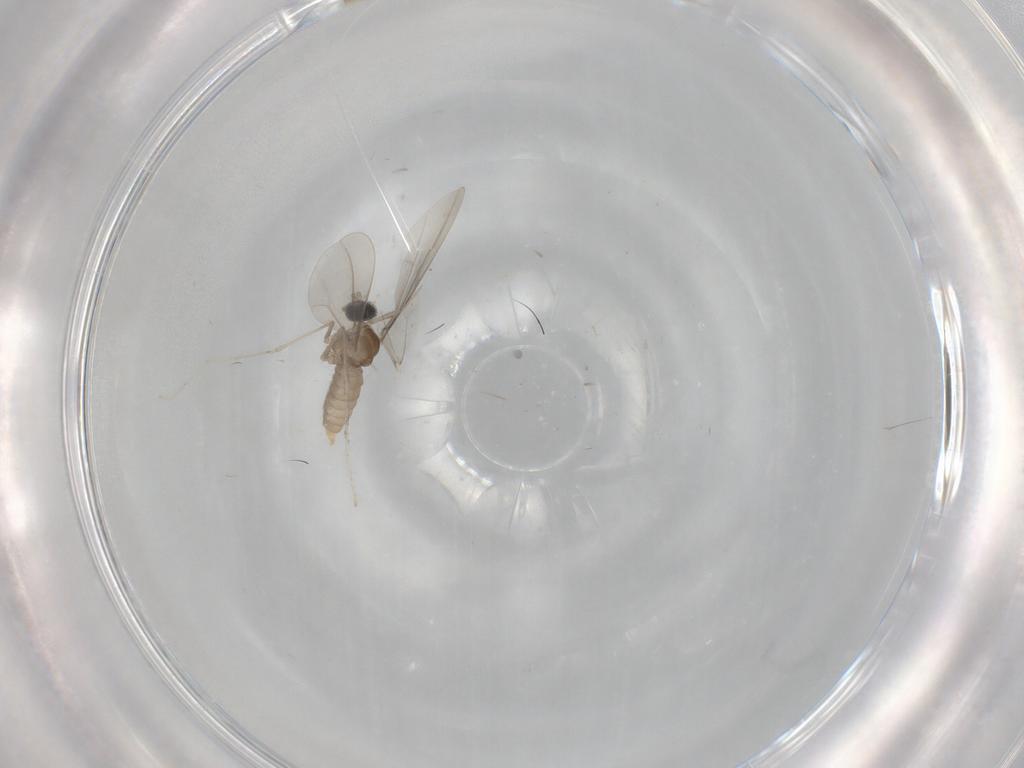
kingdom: Animalia
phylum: Arthropoda
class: Insecta
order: Diptera
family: Cecidomyiidae
